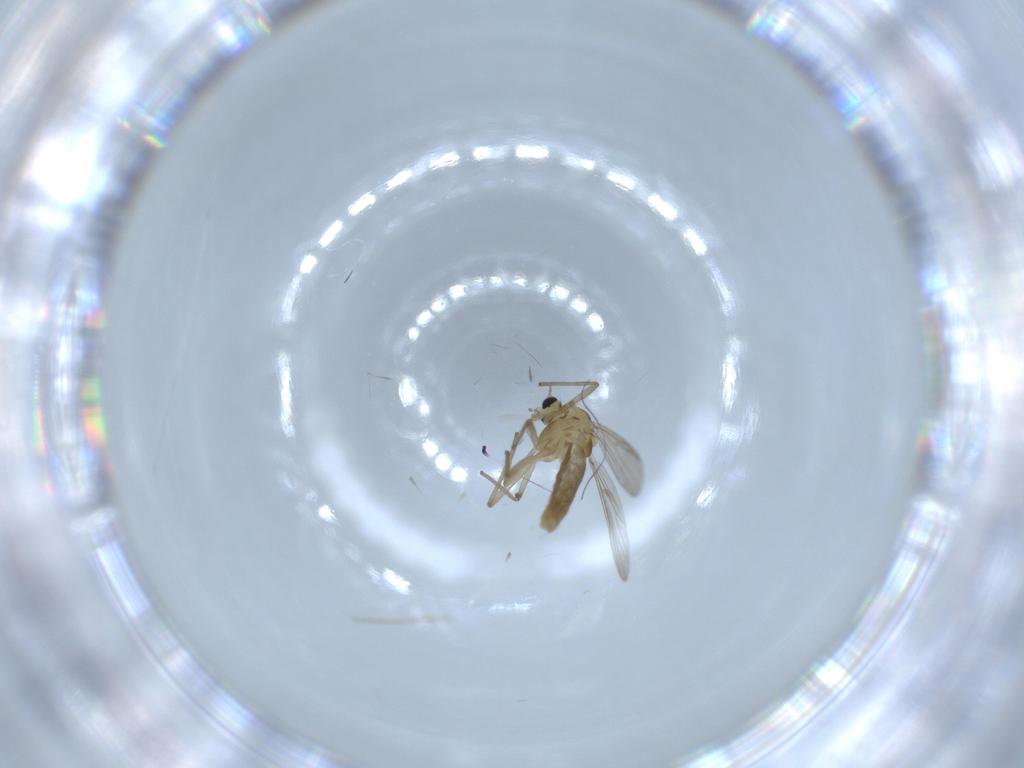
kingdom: Animalia
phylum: Arthropoda
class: Insecta
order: Diptera
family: Chironomidae
